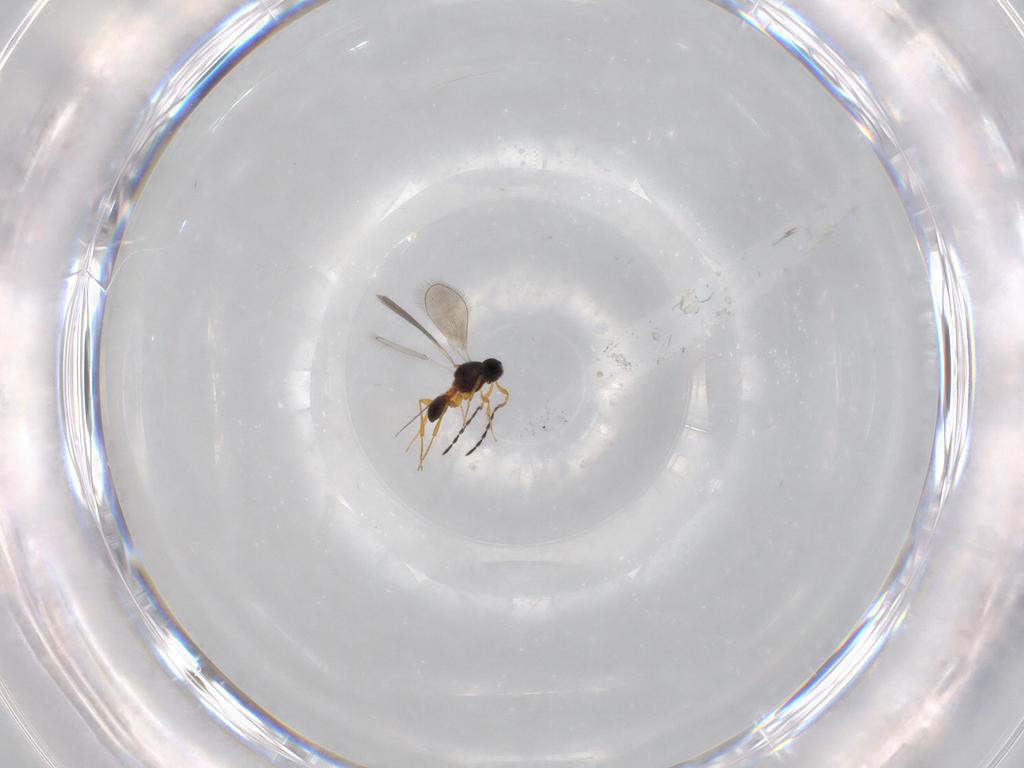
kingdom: Animalia
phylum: Arthropoda
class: Insecta
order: Hymenoptera
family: Platygastridae
